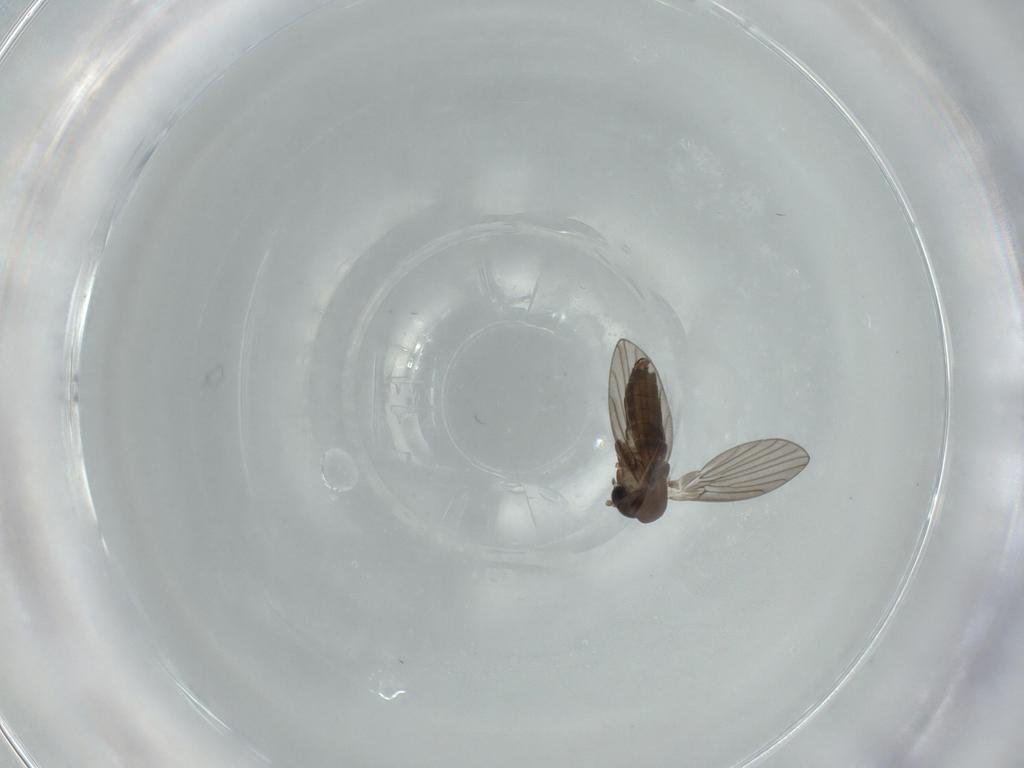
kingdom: Animalia
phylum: Arthropoda
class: Insecta
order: Diptera
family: Psychodidae
